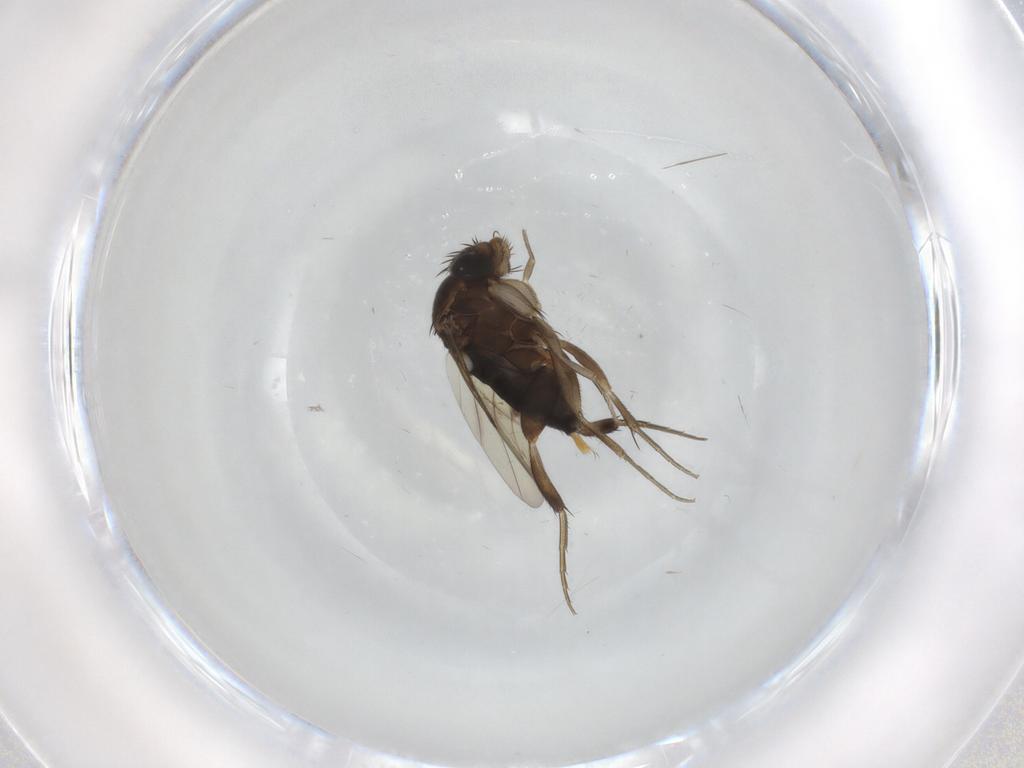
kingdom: Animalia
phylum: Arthropoda
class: Insecta
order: Diptera
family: Phoridae
